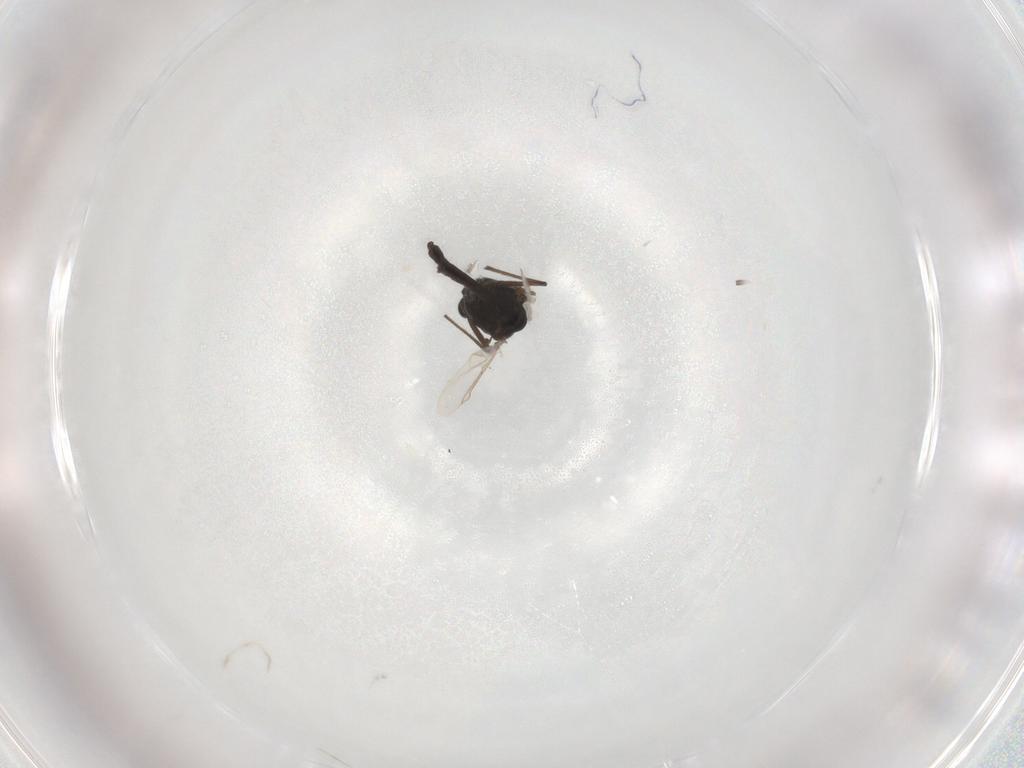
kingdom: Animalia
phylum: Arthropoda
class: Insecta
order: Diptera
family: Chironomidae
